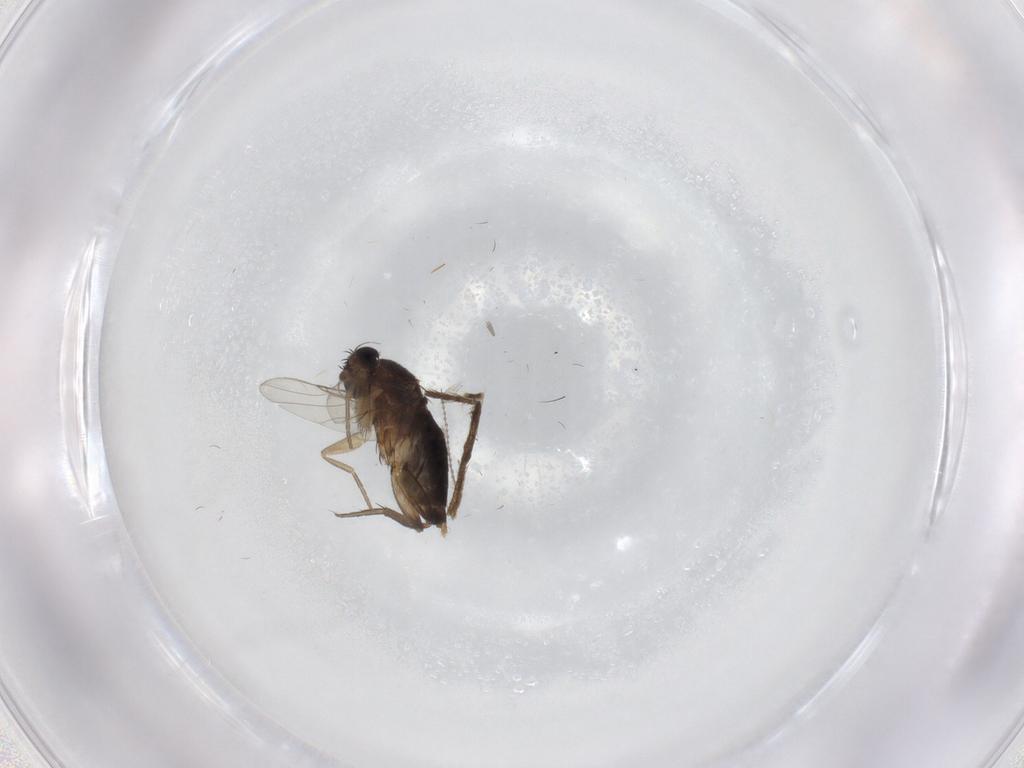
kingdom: Animalia
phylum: Arthropoda
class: Insecta
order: Diptera
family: Phoridae
